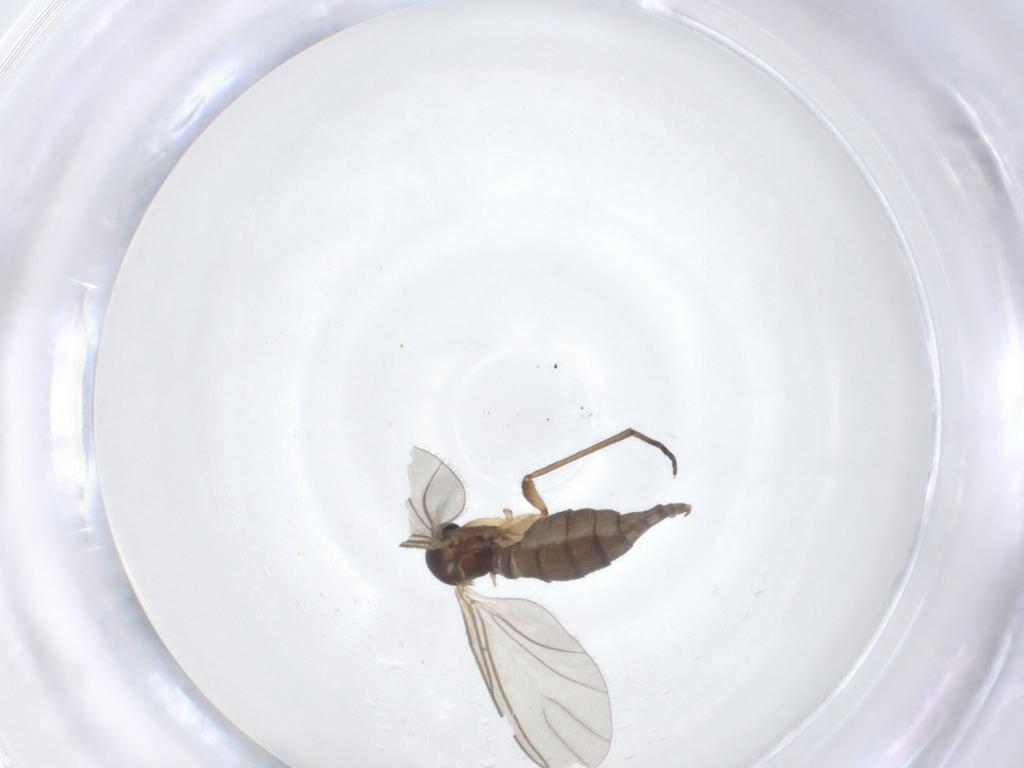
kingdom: Animalia
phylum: Arthropoda
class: Insecta
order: Diptera
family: Sciaridae
